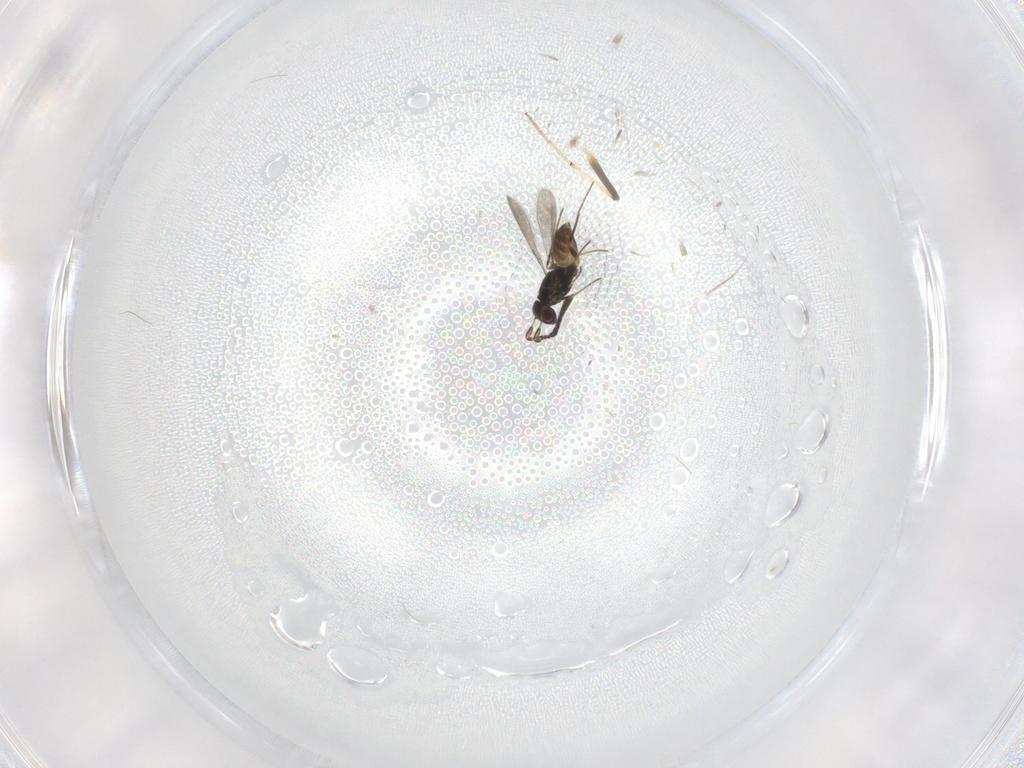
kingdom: Animalia
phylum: Arthropoda
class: Insecta
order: Hymenoptera
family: Mymaridae
